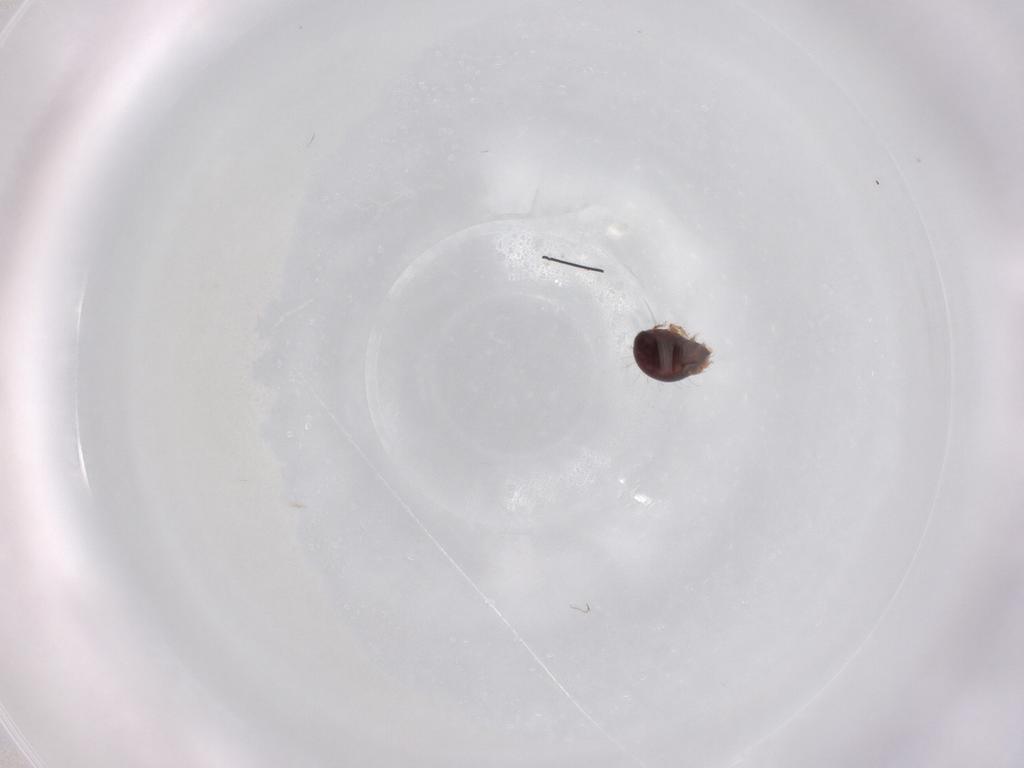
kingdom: Animalia
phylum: Arthropoda
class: Arachnida
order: Sarcoptiformes
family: Humerobatidae
